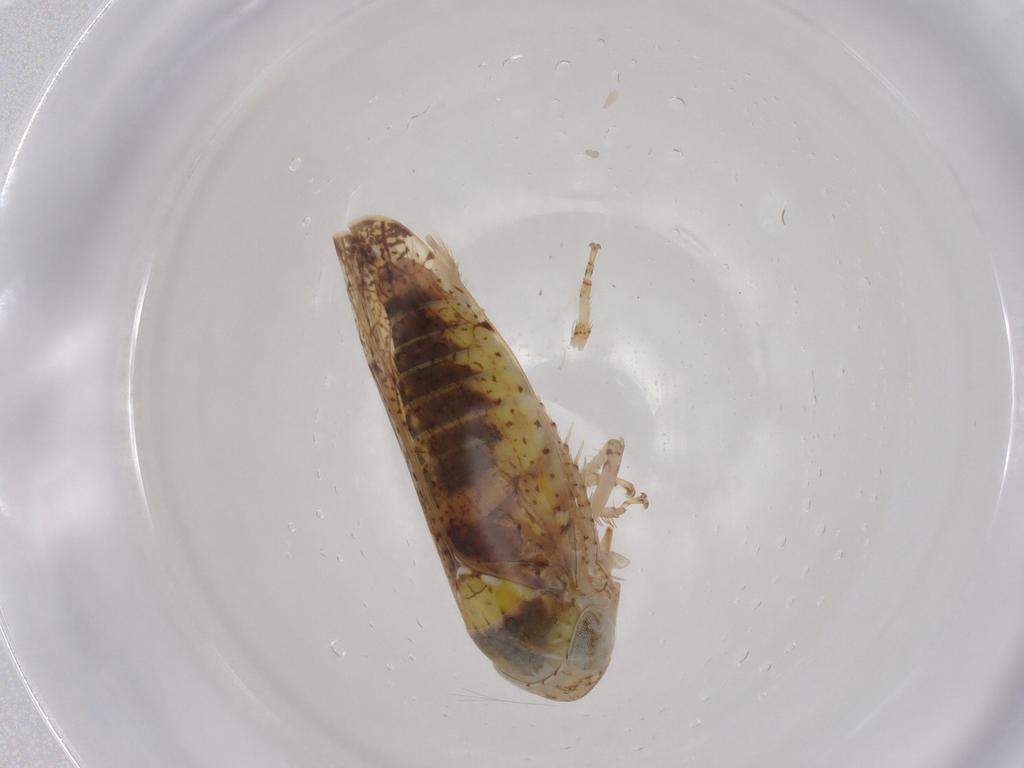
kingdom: Animalia
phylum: Arthropoda
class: Insecta
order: Hemiptera
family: Cicadellidae
